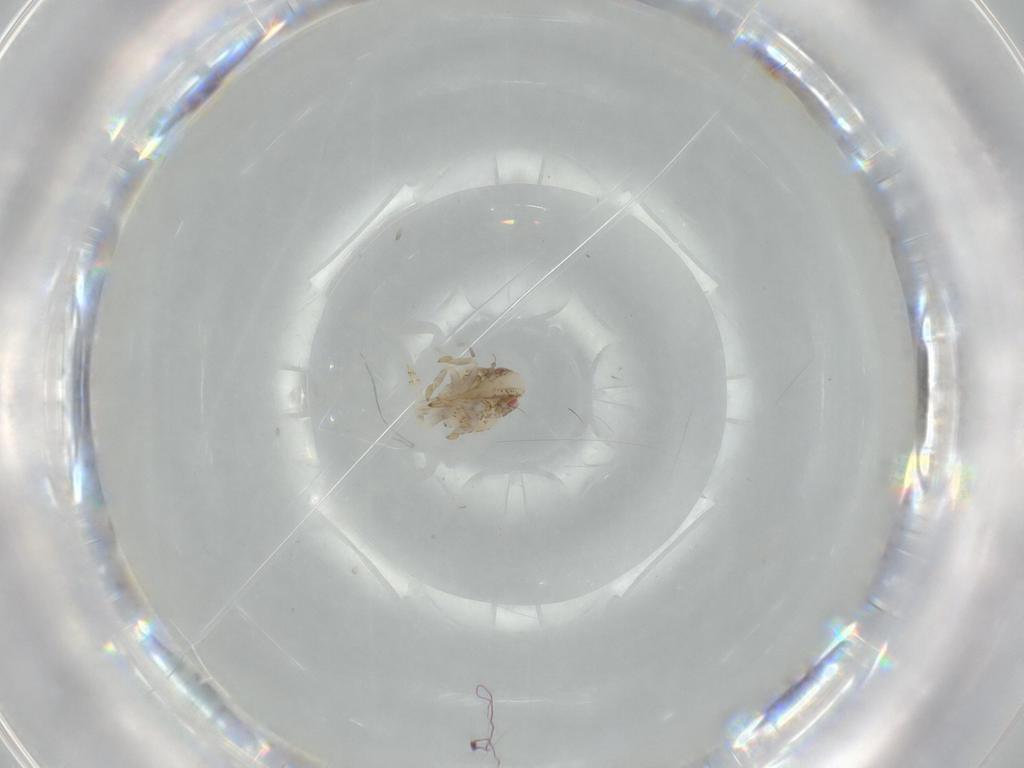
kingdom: Animalia
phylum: Arthropoda
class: Insecta
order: Hemiptera
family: Acanaloniidae
